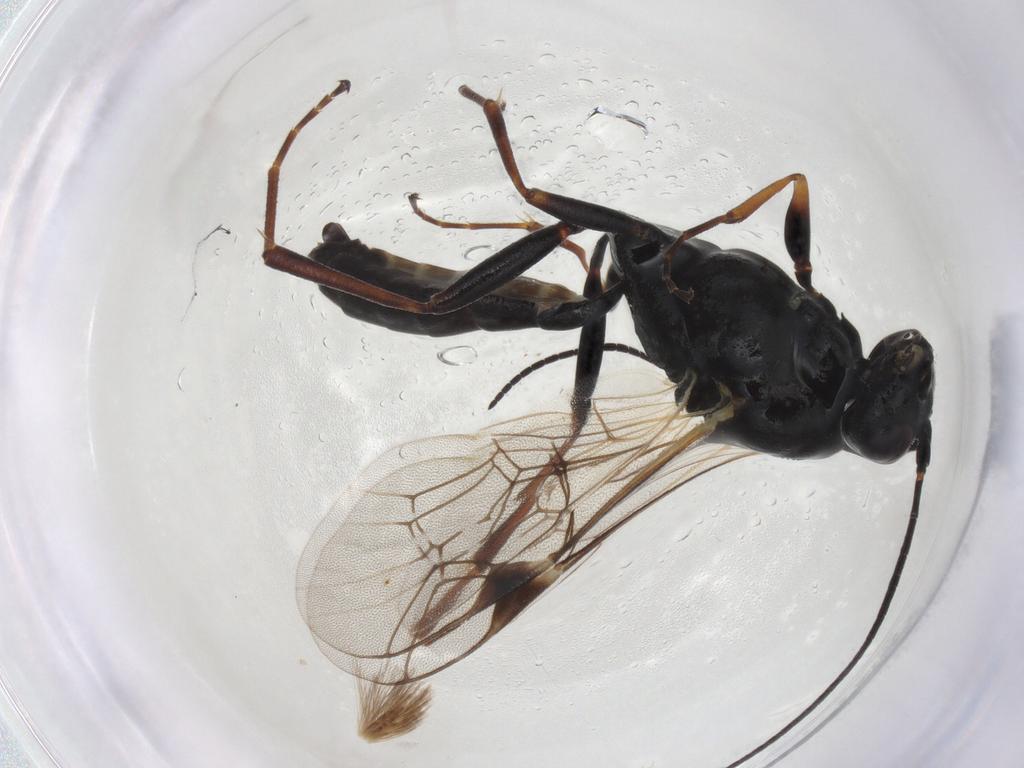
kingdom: Animalia
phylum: Arthropoda
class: Insecta
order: Hymenoptera
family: Ichneumonidae
